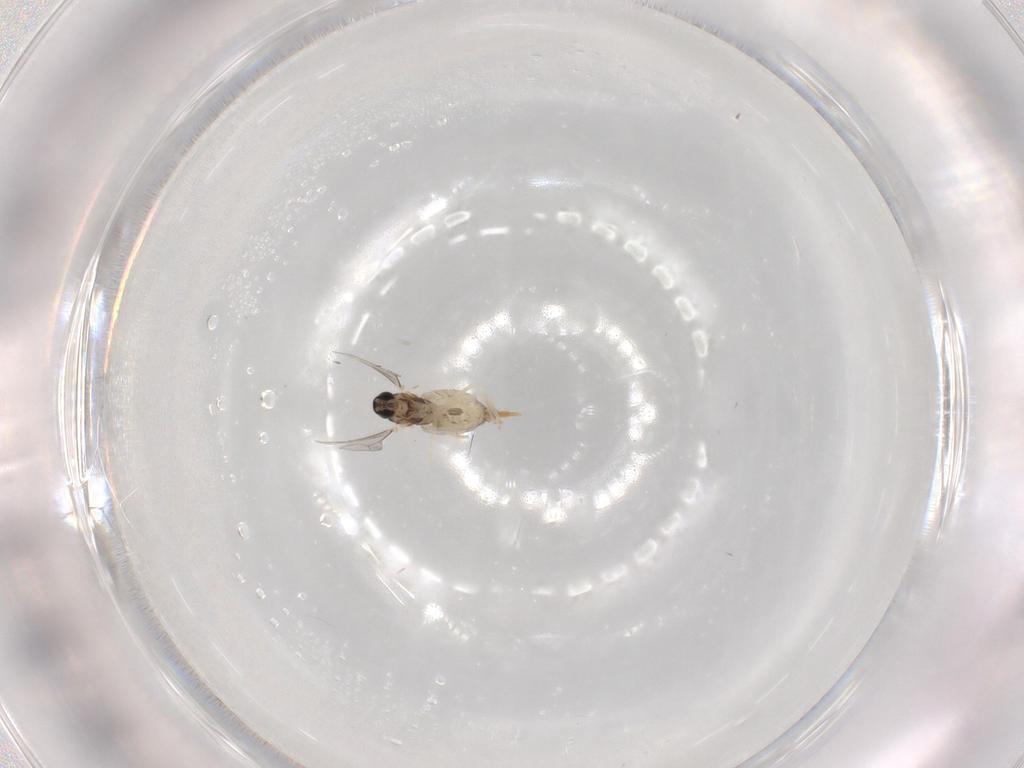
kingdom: Animalia
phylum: Arthropoda
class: Insecta
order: Diptera
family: Cecidomyiidae
